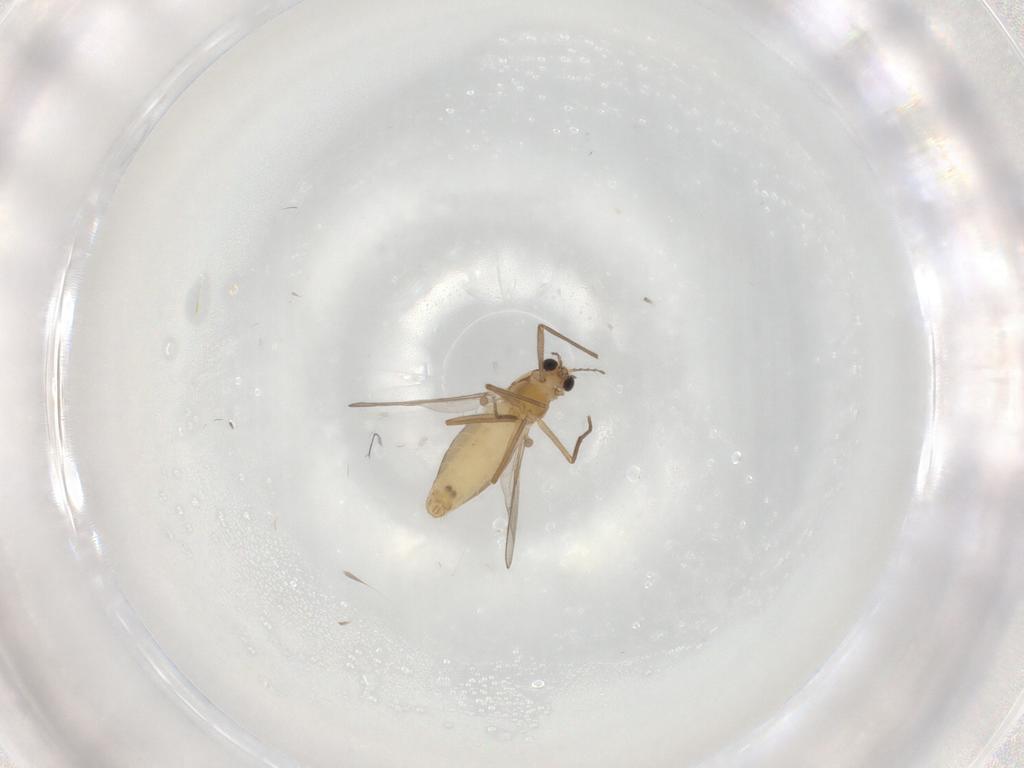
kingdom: Animalia
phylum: Arthropoda
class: Insecta
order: Diptera
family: Chironomidae
